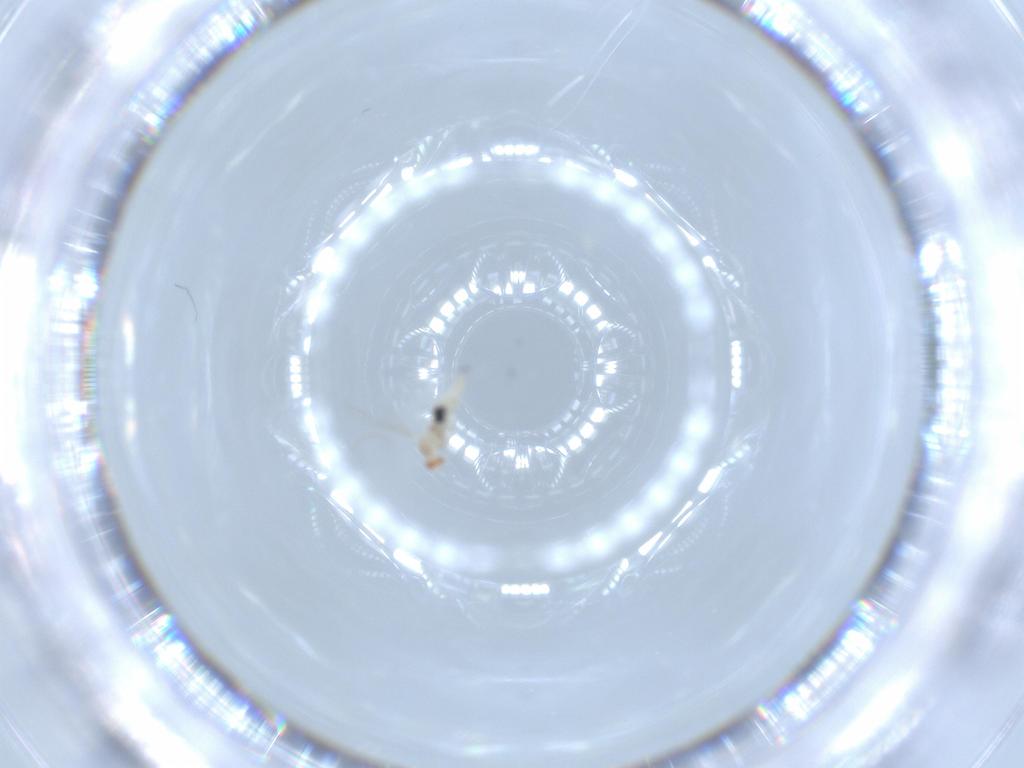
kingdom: Animalia
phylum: Arthropoda
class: Insecta
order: Diptera
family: Cecidomyiidae
